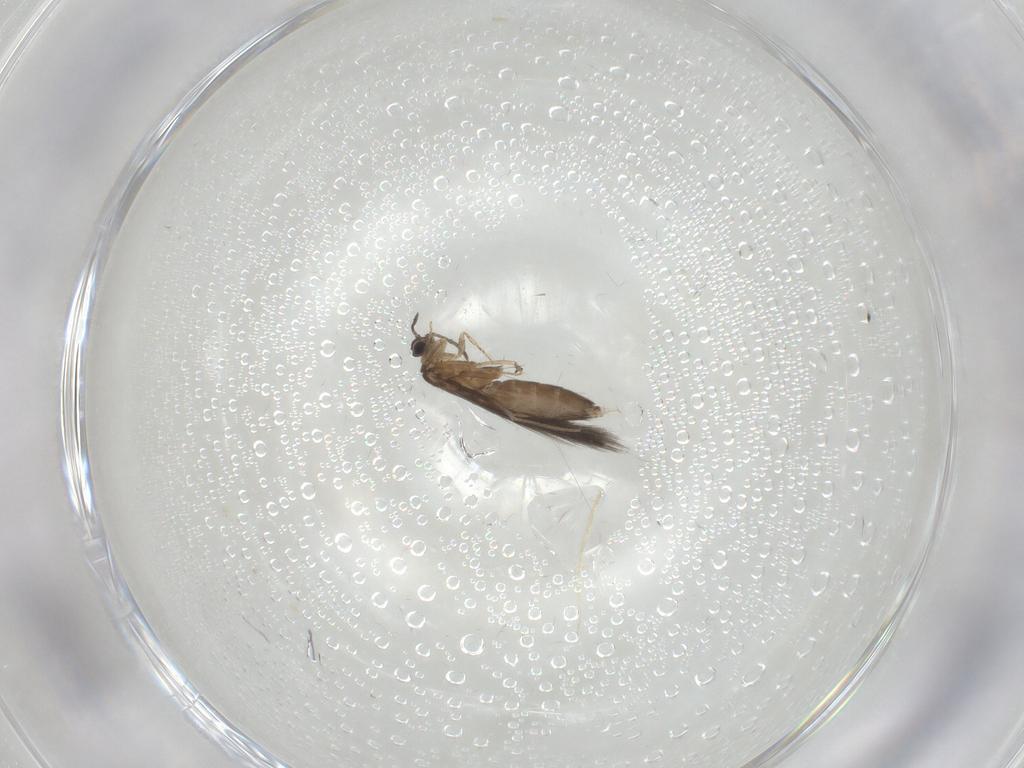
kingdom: Animalia
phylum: Arthropoda
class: Insecta
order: Trichoptera
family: Hydroptilidae
